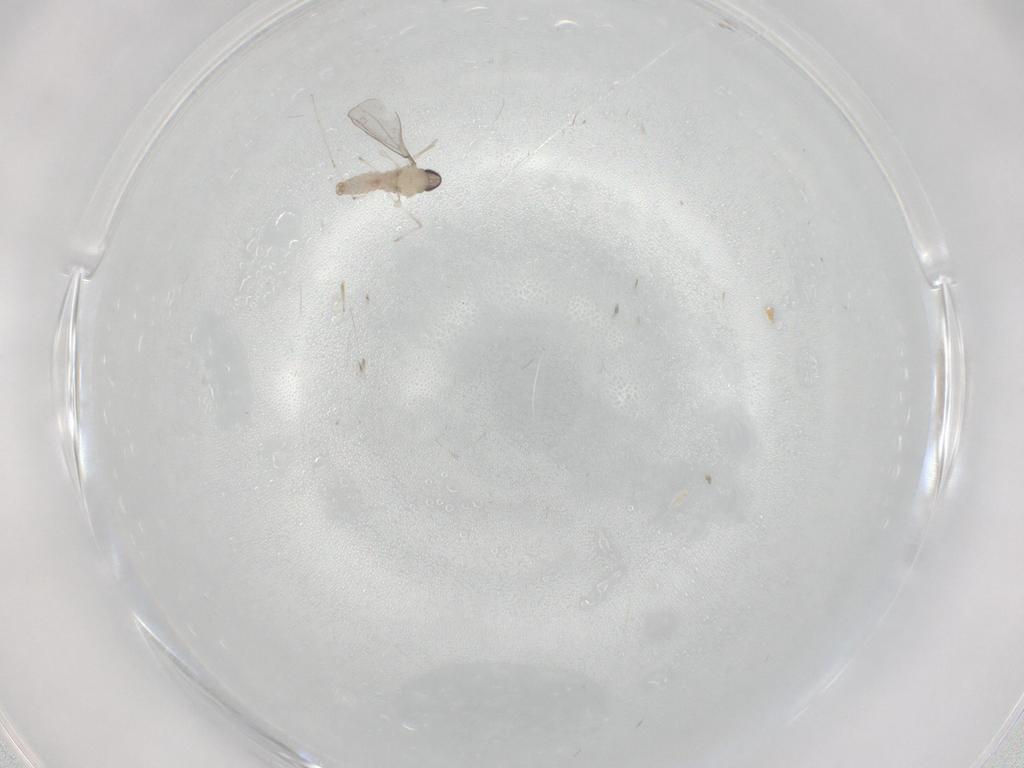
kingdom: Animalia
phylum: Arthropoda
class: Insecta
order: Diptera
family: Cecidomyiidae
